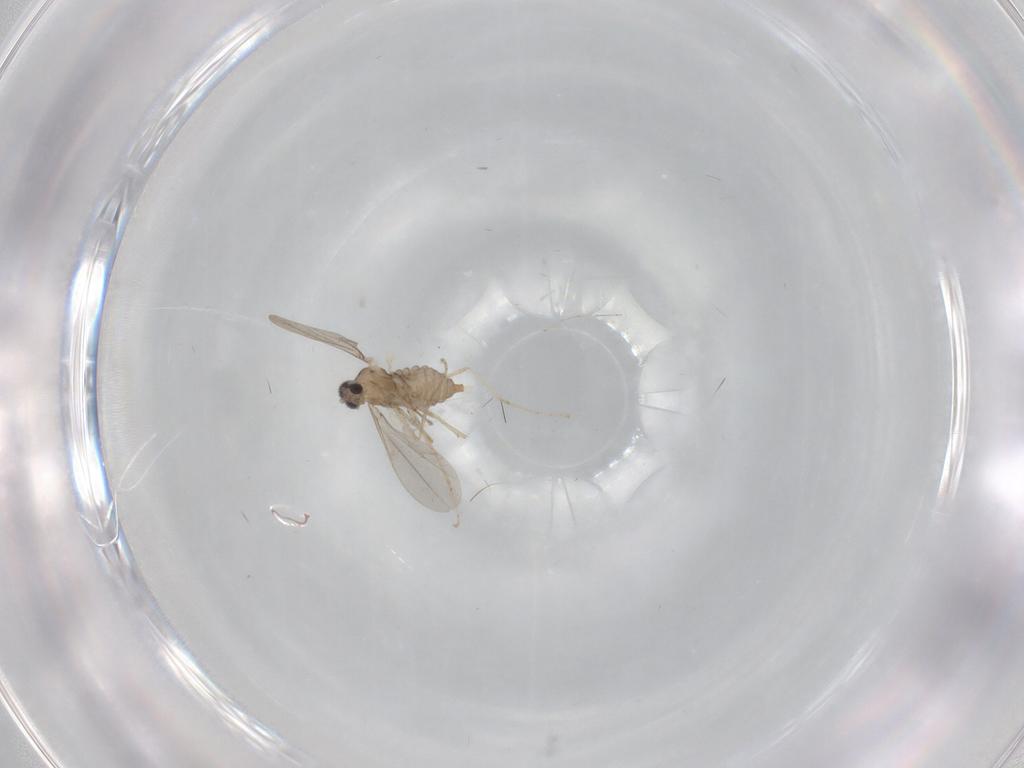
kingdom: Animalia
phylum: Arthropoda
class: Insecta
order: Diptera
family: Cecidomyiidae
